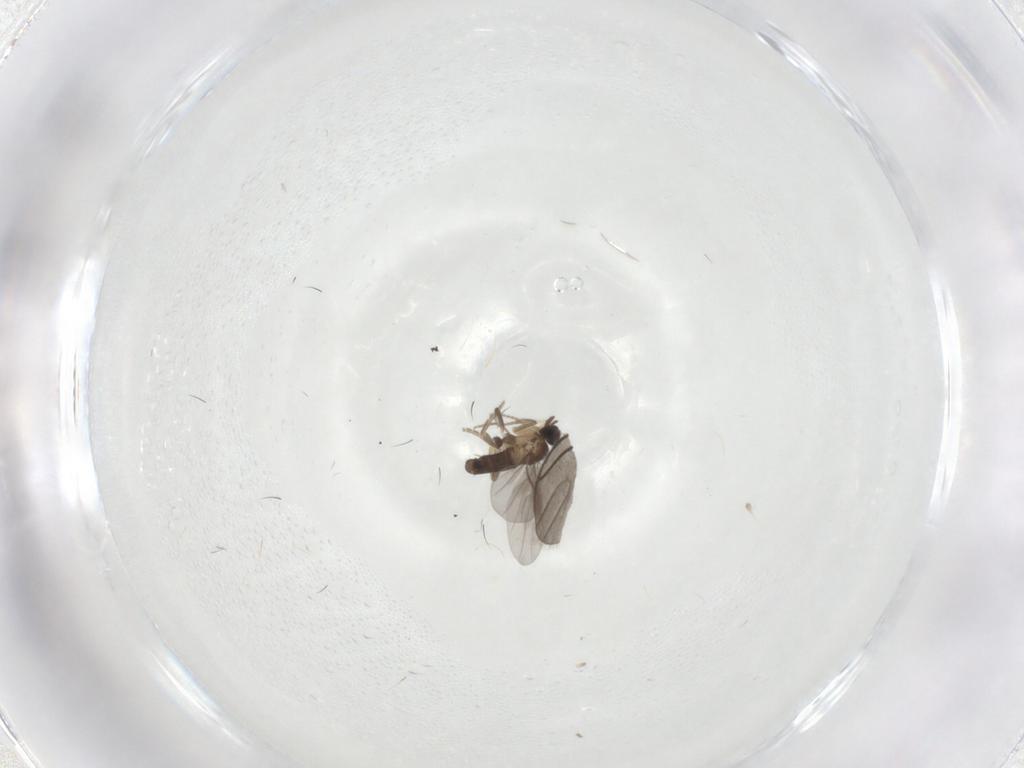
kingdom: Animalia
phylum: Arthropoda
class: Insecta
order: Diptera
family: Chironomidae
